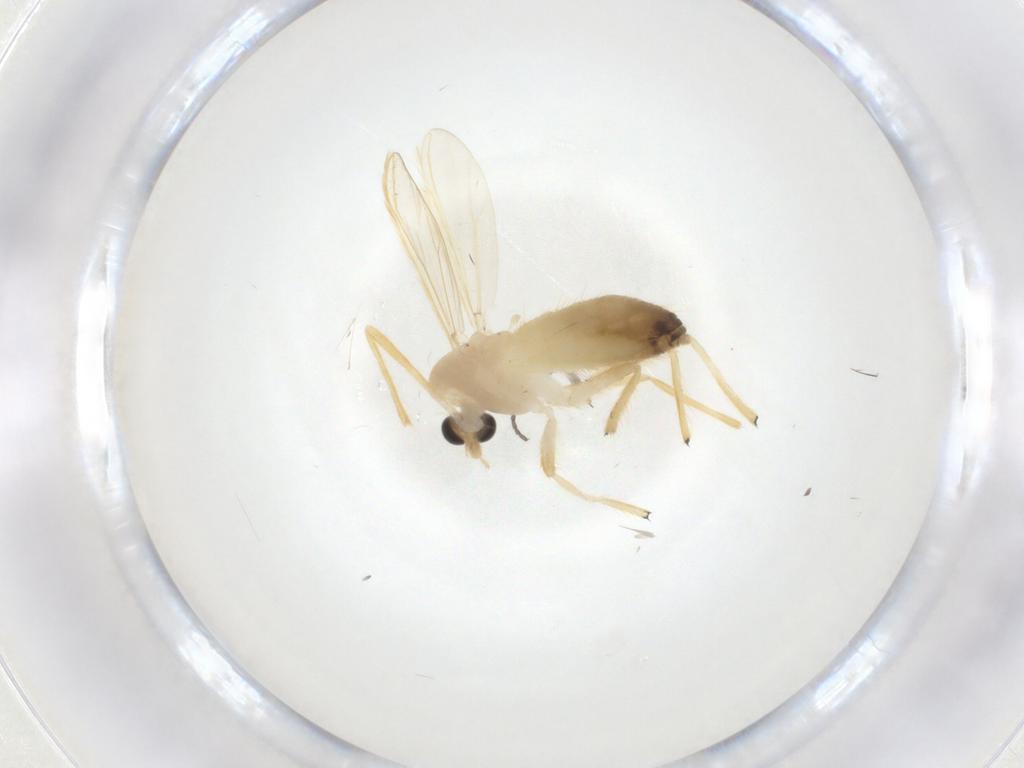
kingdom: Animalia
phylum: Arthropoda
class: Insecta
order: Diptera
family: Chironomidae
